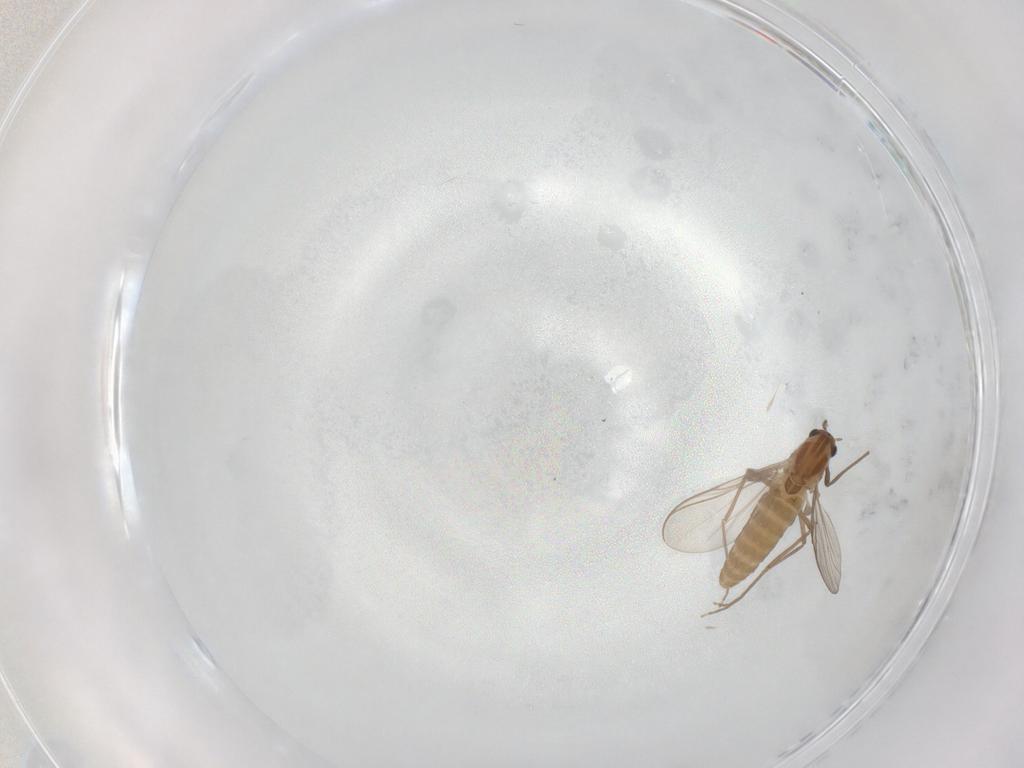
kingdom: Animalia
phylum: Arthropoda
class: Insecta
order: Diptera
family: Chironomidae
